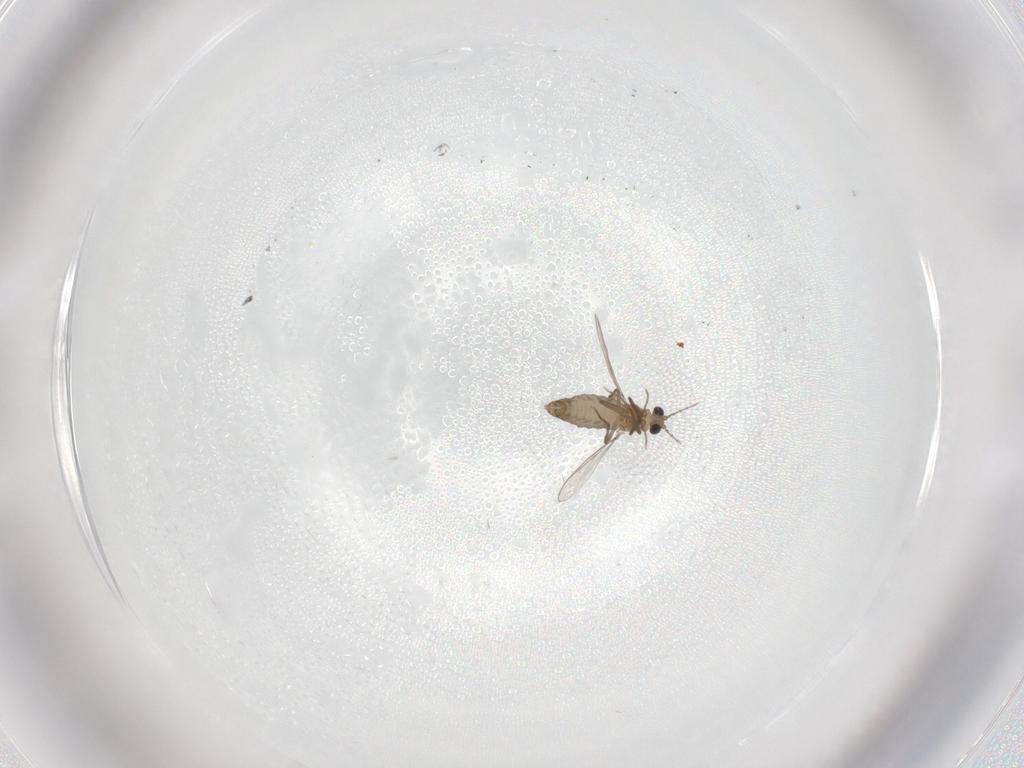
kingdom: Animalia
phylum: Arthropoda
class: Insecta
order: Diptera
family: Chironomidae
